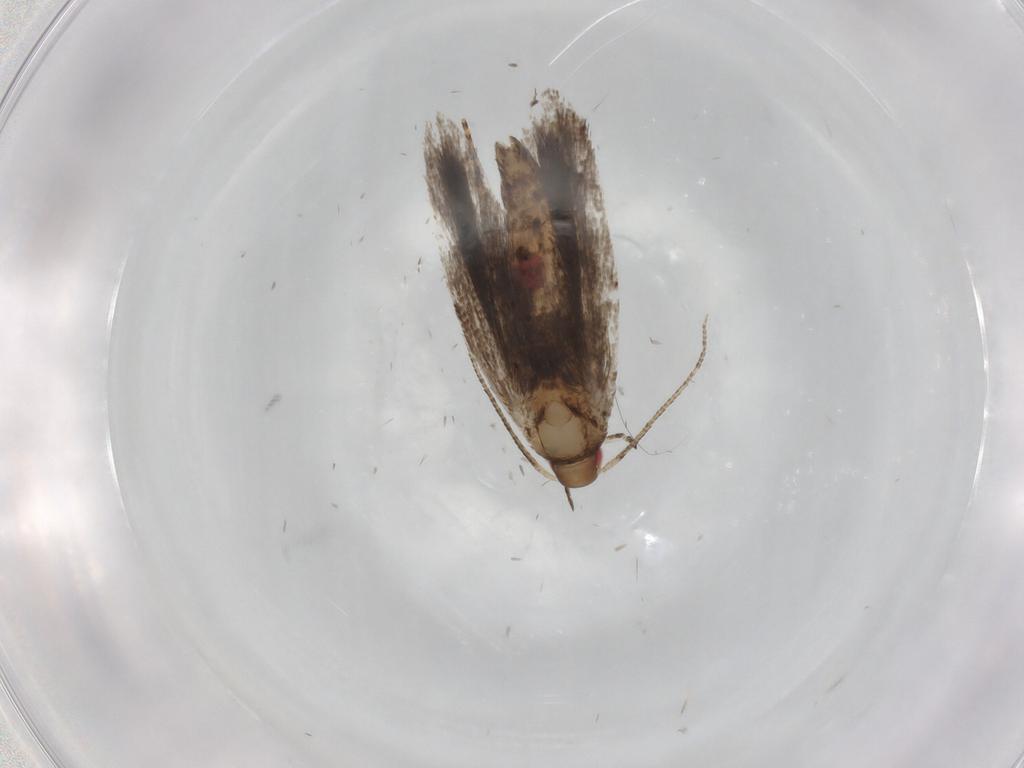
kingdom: Animalia
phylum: Arthropoda
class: Insecta
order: Lepidoptera
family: Gelechiidae
